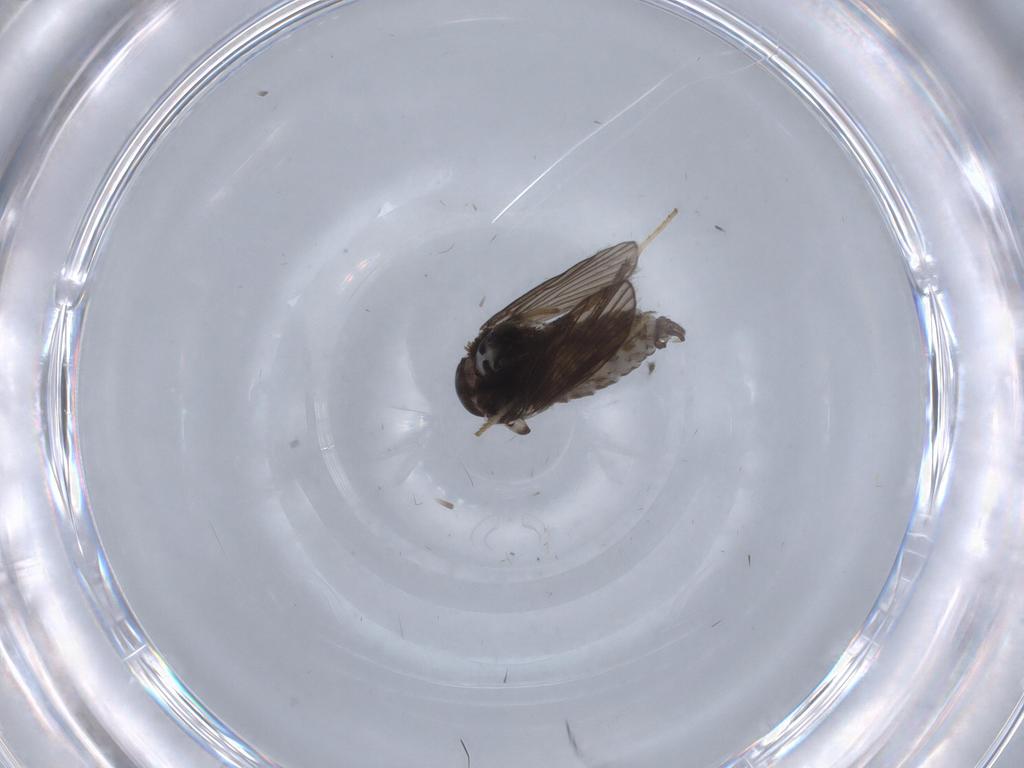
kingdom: Animalia
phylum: Arthropoda
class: Insecta
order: Diptera
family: Psychodidae
